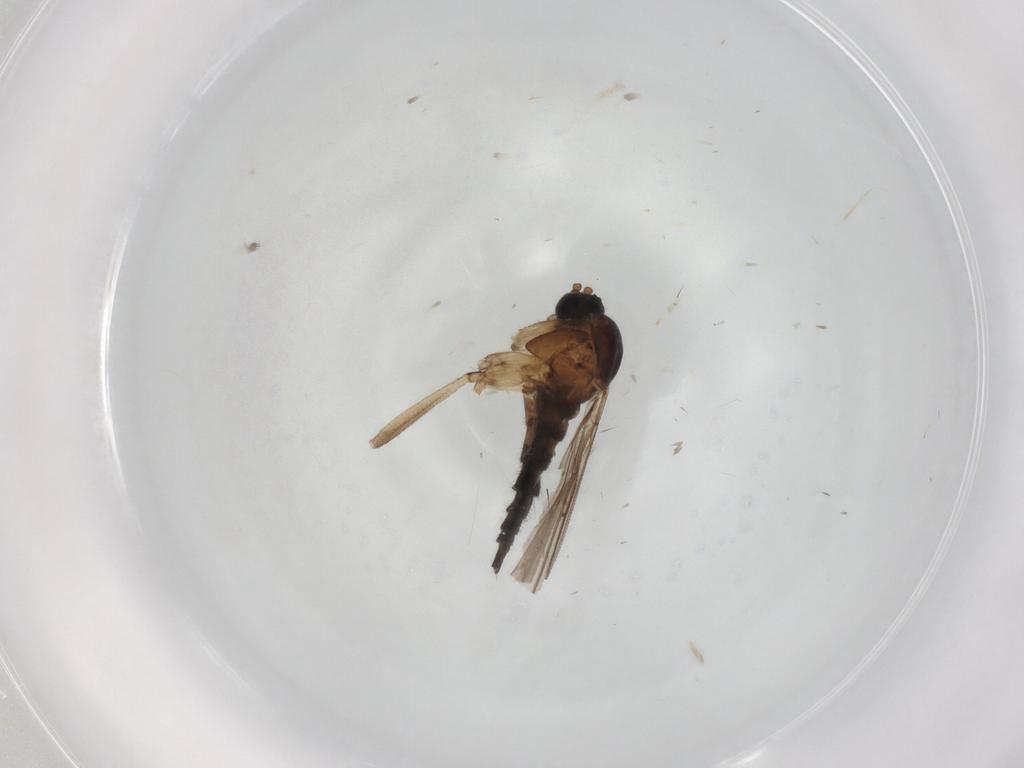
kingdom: Animalia
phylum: Arthropoda
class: Insecta
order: Diptera
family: Sciaridae
